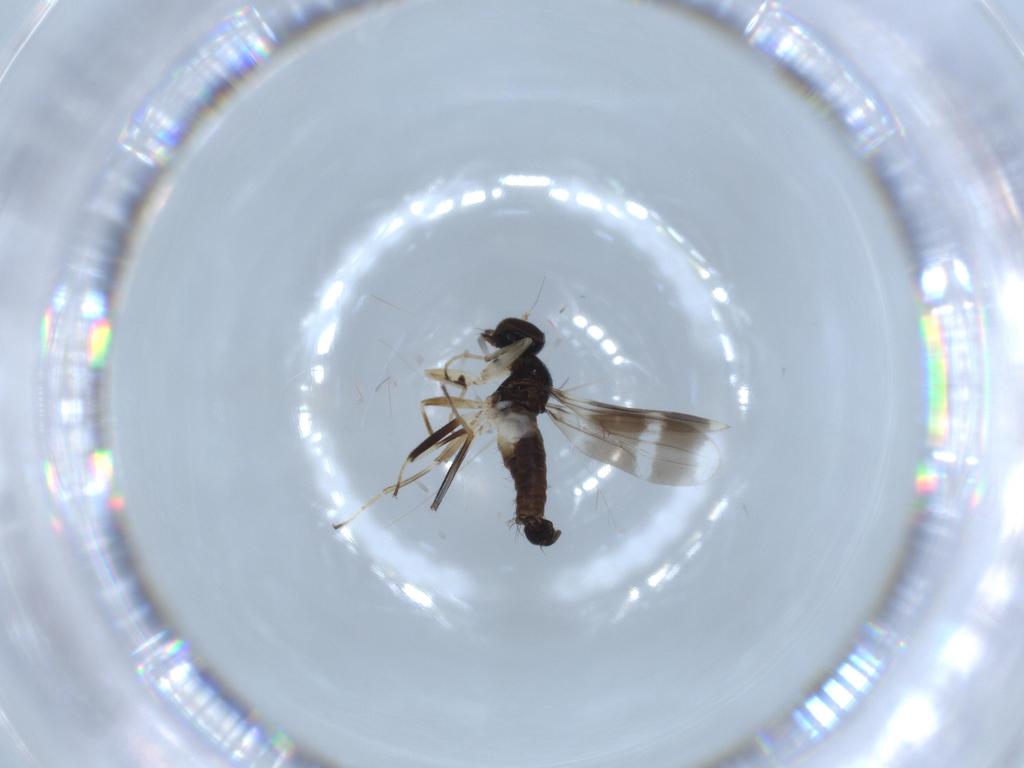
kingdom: Animalia
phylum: Arthropoda
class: Insecta
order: Diptera
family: Hybotidae
